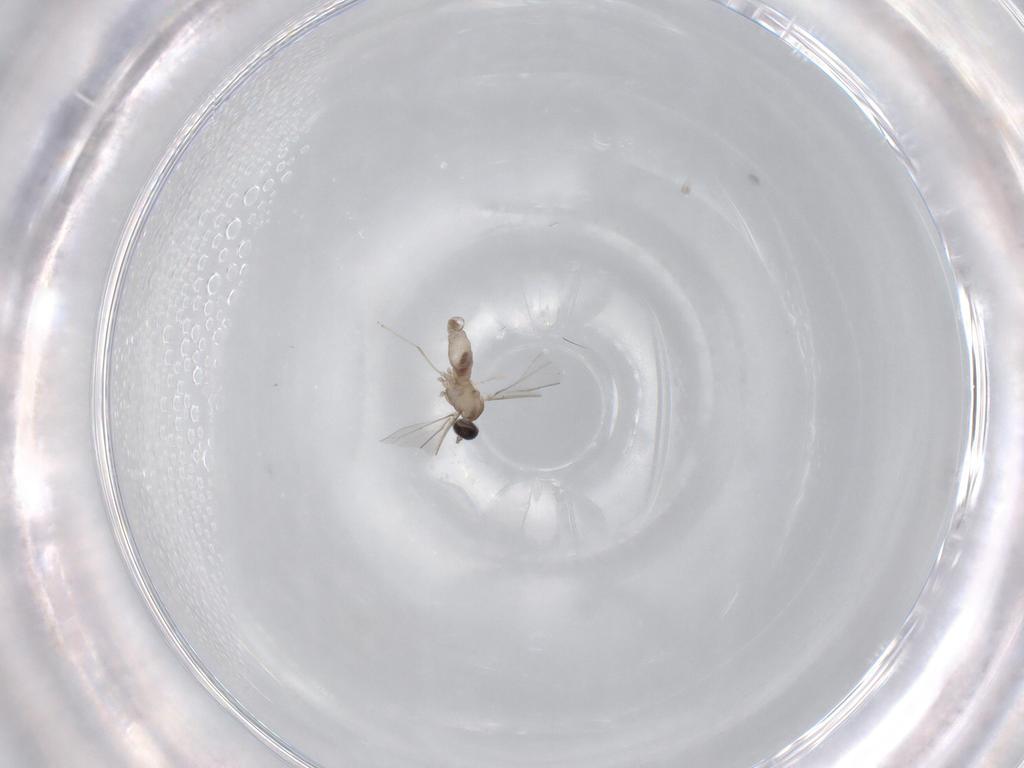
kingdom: Animalia
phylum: Arthropoda
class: Insecta
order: Diptera
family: Cecidomyiidae
